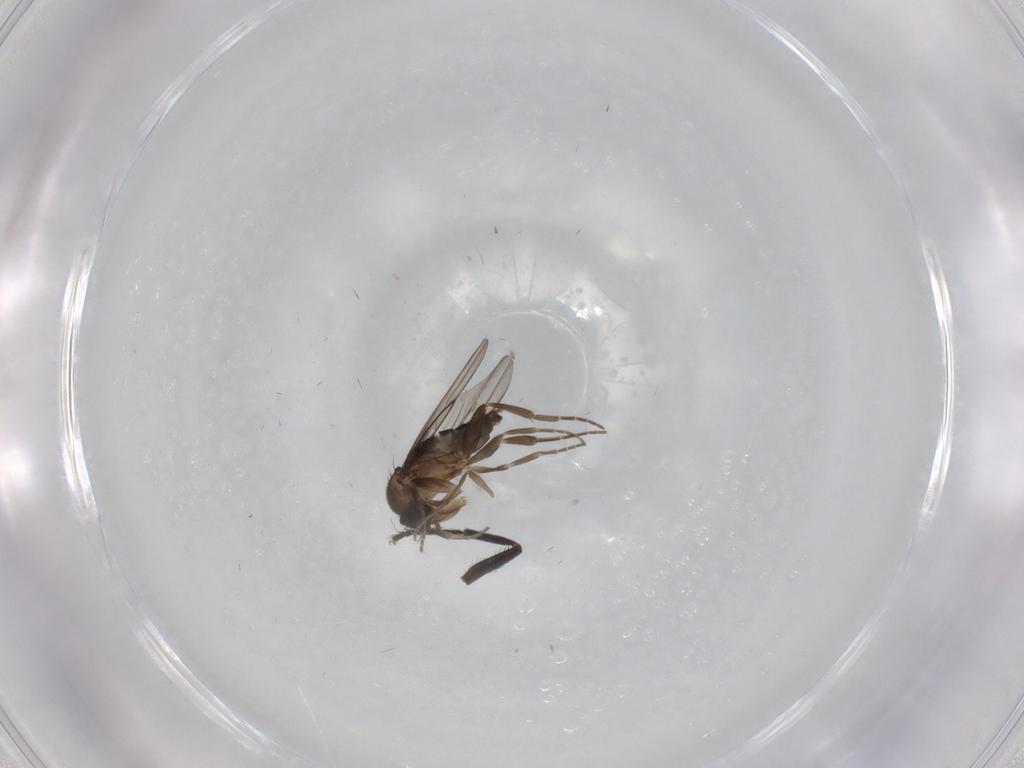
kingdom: Animalia
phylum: Arthropoda
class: Insecta
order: Diptera
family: Milichiidae
